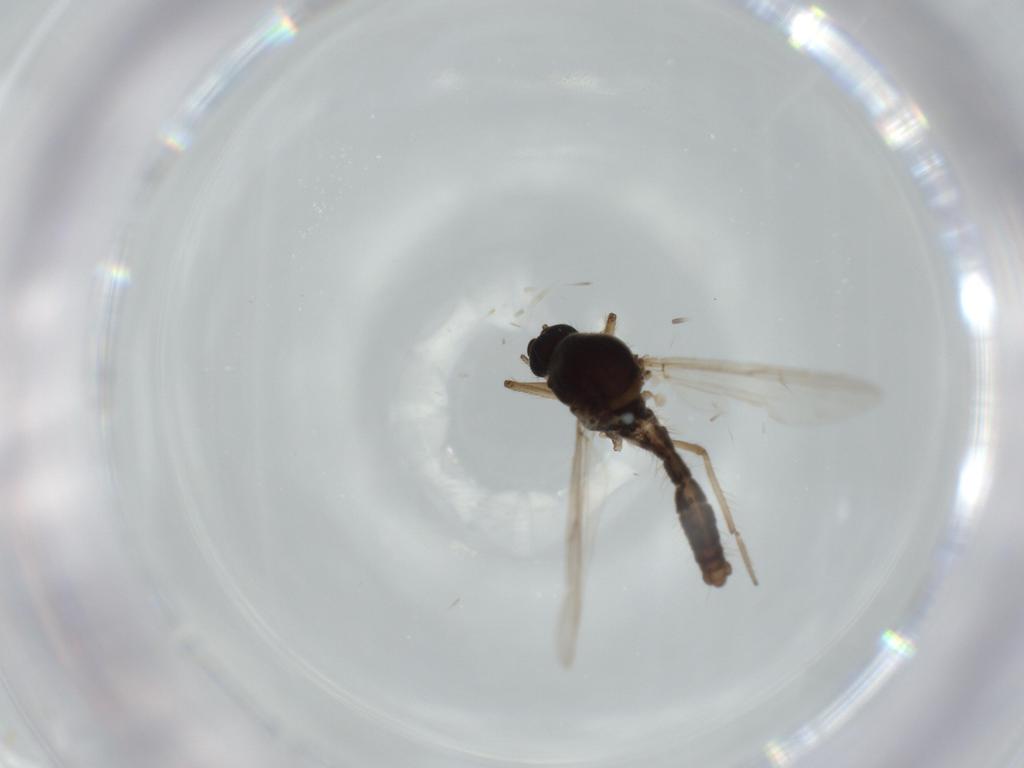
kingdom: Animalia
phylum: Arthropoda
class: Insecta
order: Diptera
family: Ceratopogonidae
